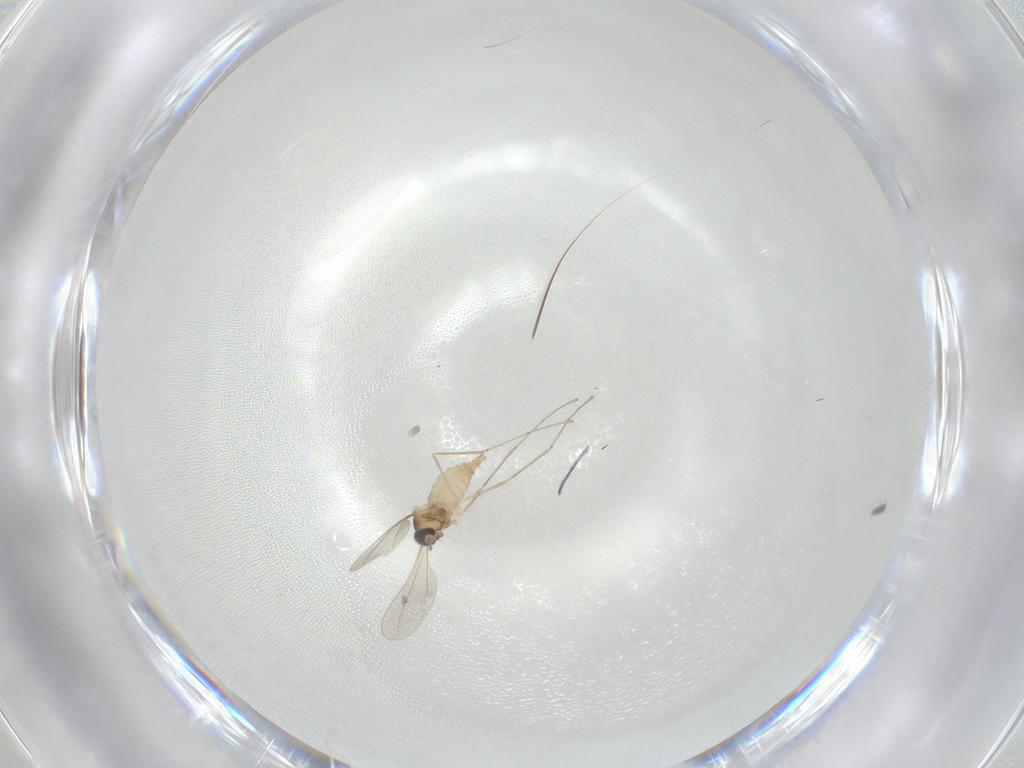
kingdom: Animalia
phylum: Arthropoda
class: Insecta
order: Diptera
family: Cecidomyiidae
